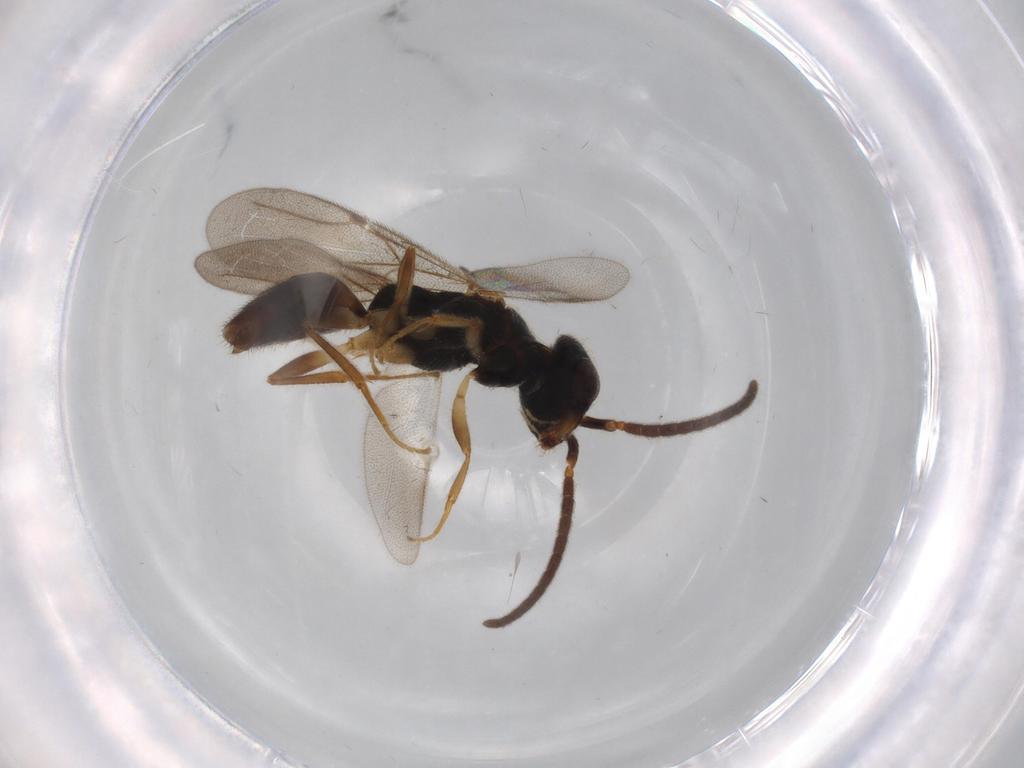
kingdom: Animalia
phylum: Arthropoda
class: Insecta
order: Hymenoptera
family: Bethylidae
